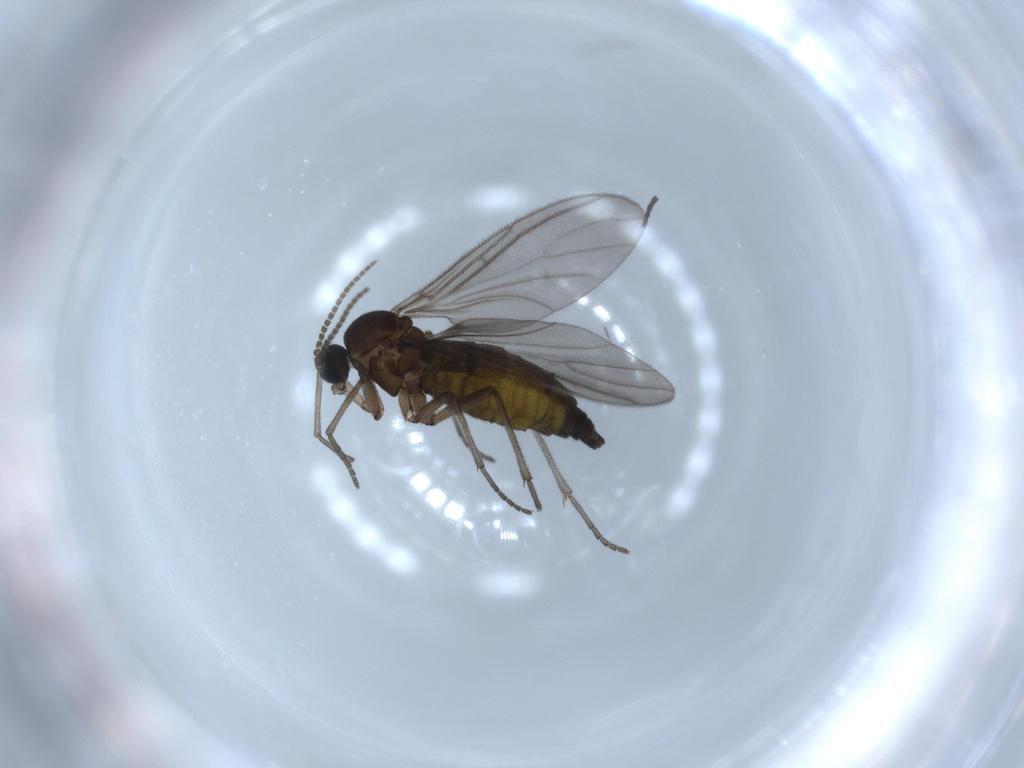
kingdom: Animalia
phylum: Arthropoda
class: Insecta
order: Diptera
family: Sciaridae
